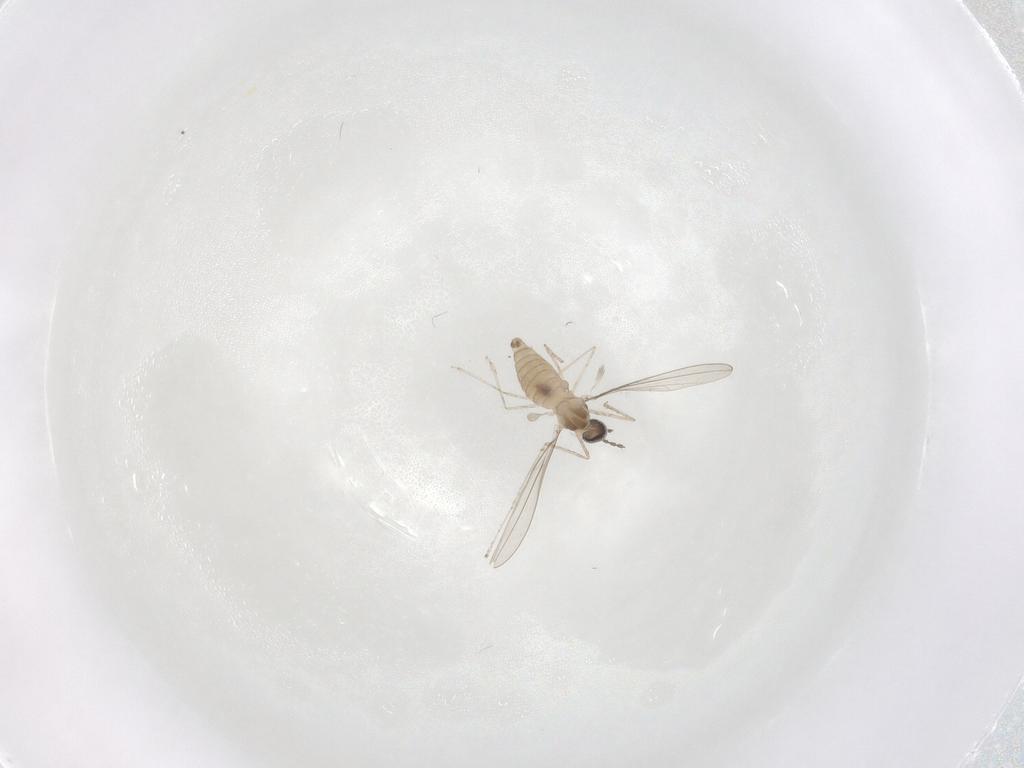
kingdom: Animalia
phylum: Arthropoda
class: Insecta
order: Diptera
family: Cecidomyiidae
